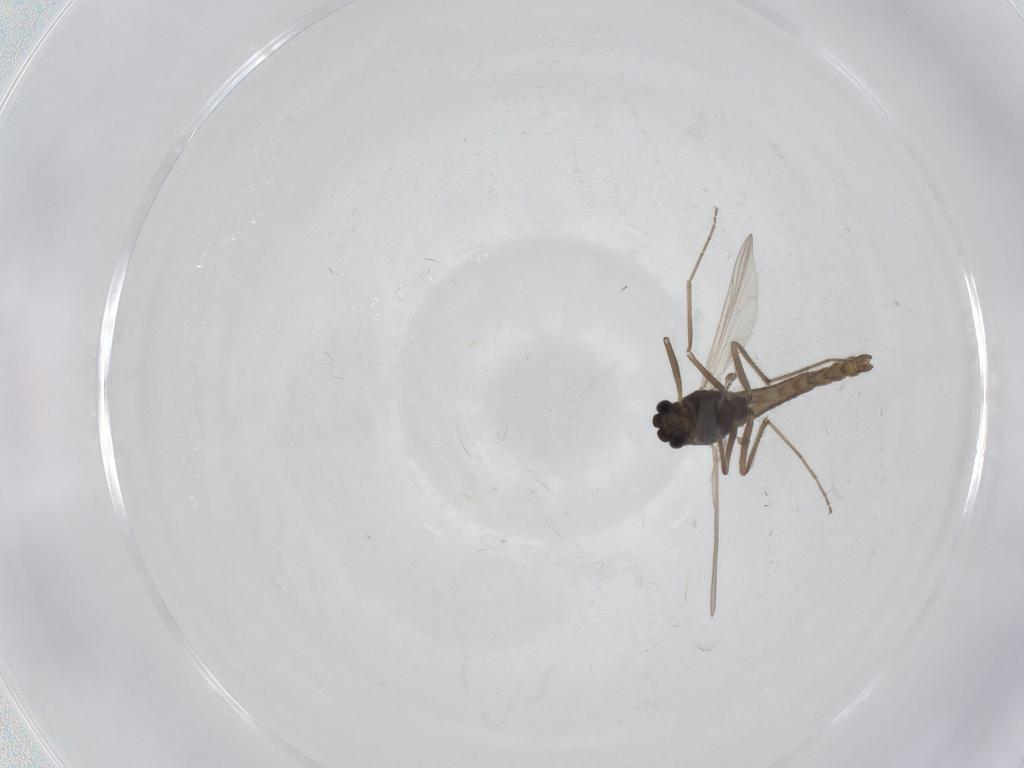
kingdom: Animalia
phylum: Arthropoda
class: Insecta
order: Diptera
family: Chironomidae
